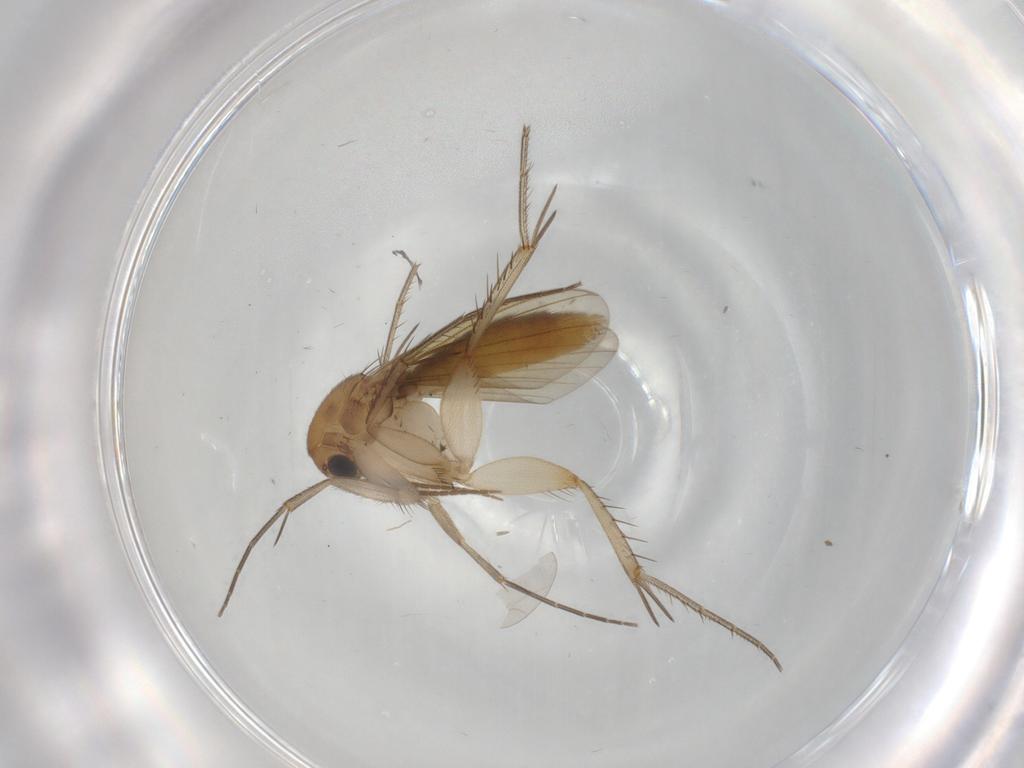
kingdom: Animalia
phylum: Arthropoda
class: Insecta
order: Diptera
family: Mycetophilidae
